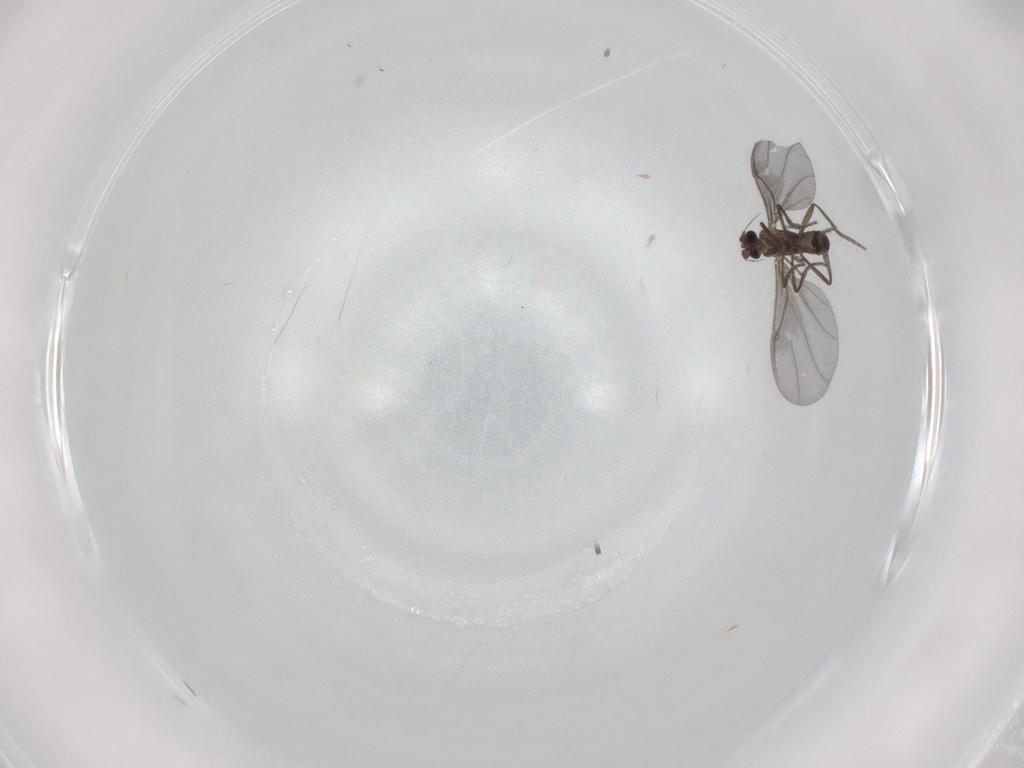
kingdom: Animalia
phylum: Arthropoda
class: Insecta
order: Diptera
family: Phoridae
